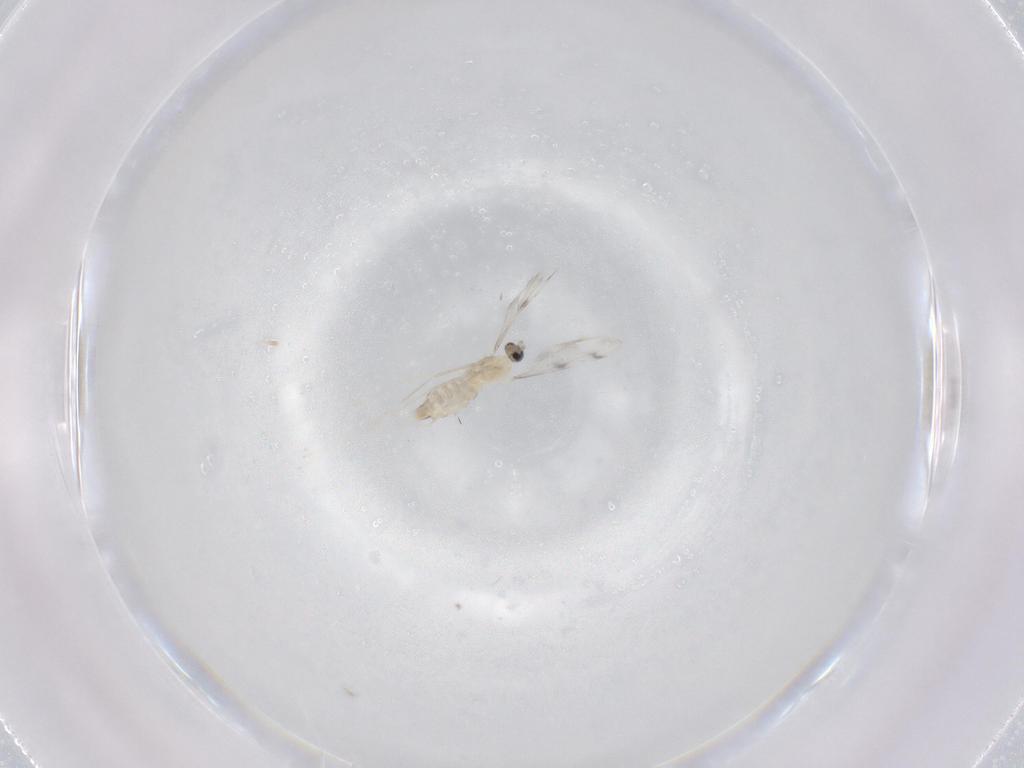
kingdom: Animalia
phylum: Arthropoda
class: Insecta
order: Diptera
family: Cecidomyiidae
